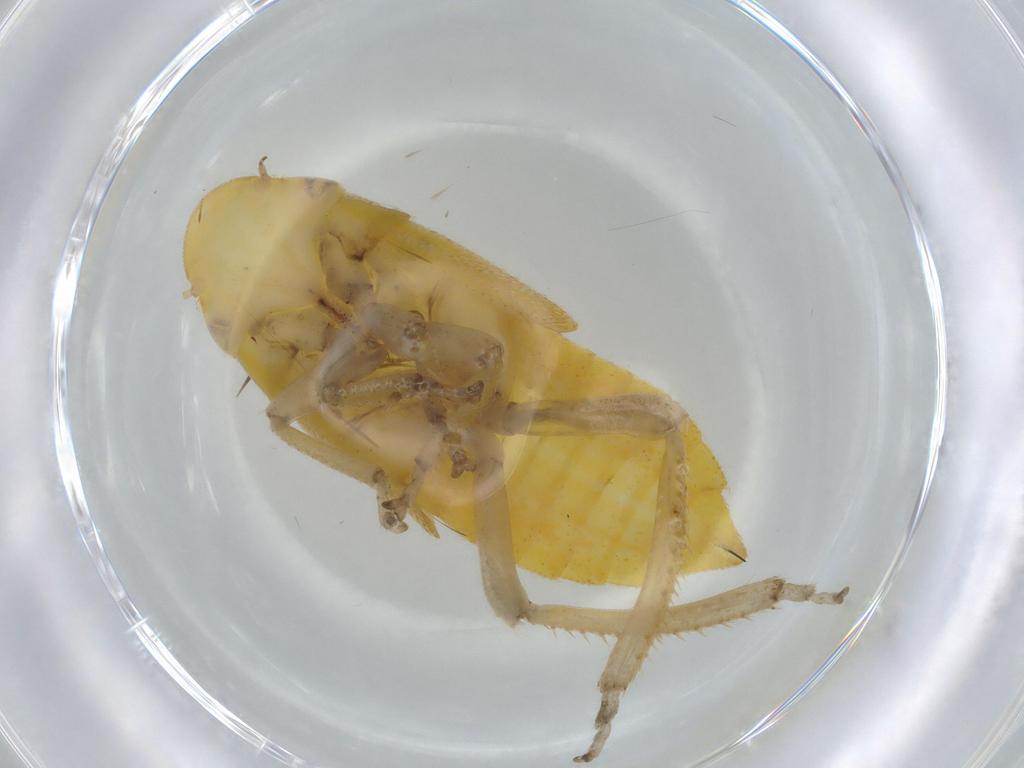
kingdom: Animalia
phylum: Arthropoda
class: Insecta
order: Hemiptera
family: Cicadellidae
